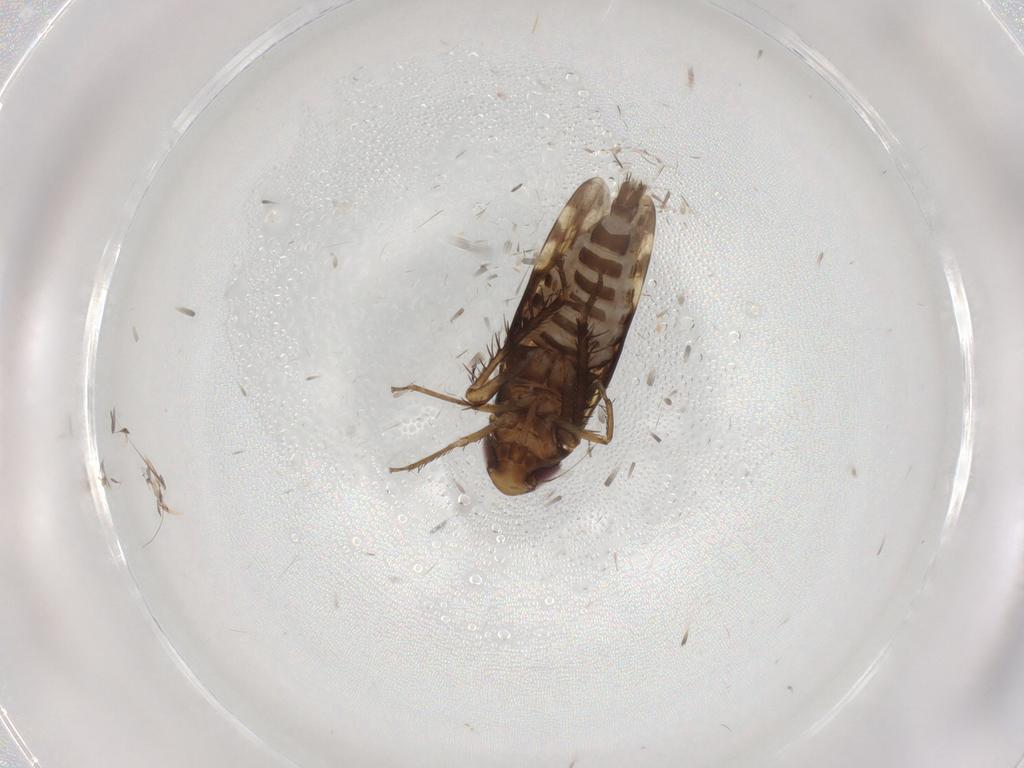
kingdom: Animalia
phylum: Arthropoda
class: Insecta
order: Hemiptera
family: Cicadellidae
